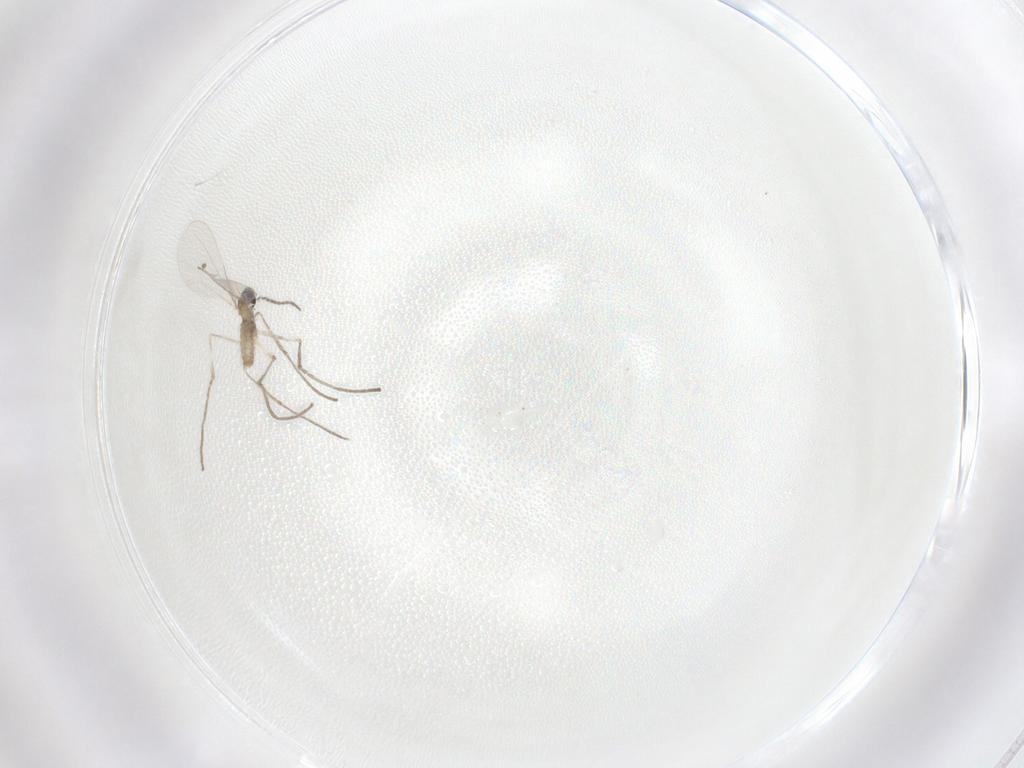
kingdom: Animalia
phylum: Arthropoda
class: Insecta
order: Diptera
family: Cecidomyiidae
